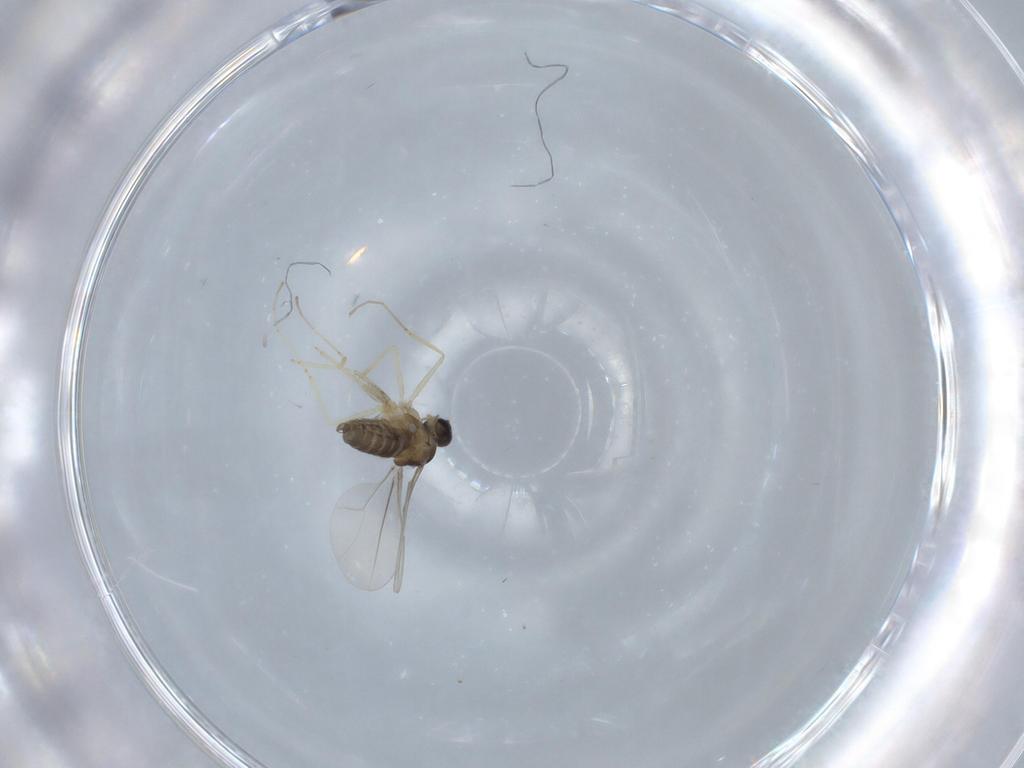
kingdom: Animalia
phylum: Arthropoda
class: Insecta
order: Diptera
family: Cecidomyiidae
